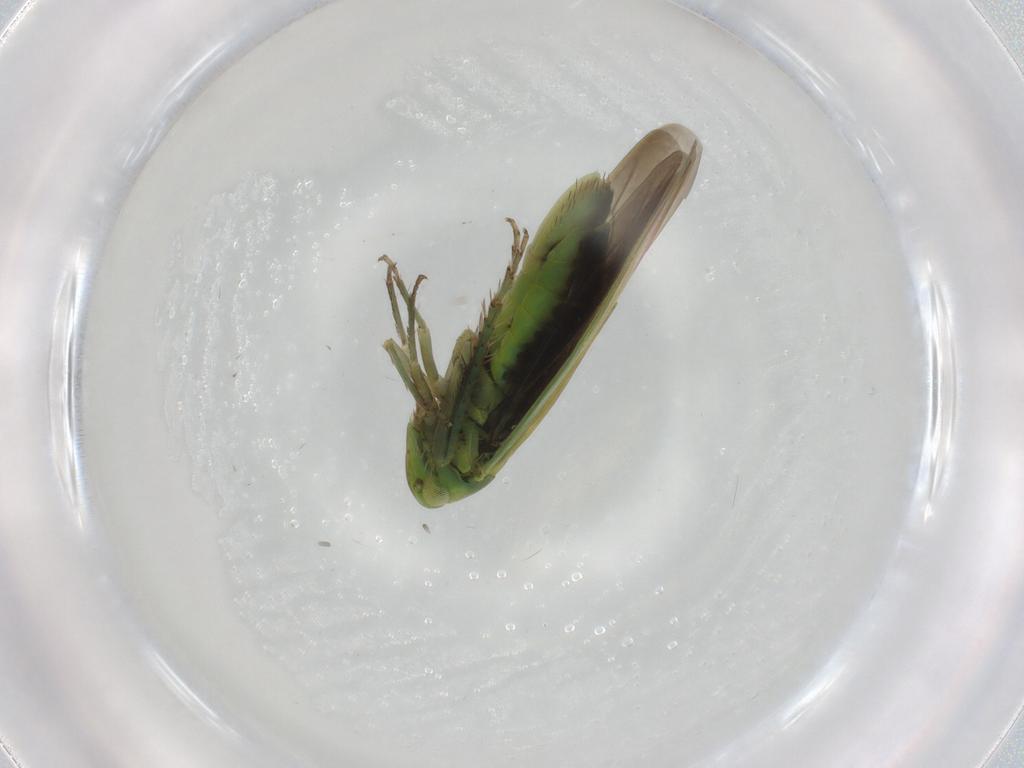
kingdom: Animalia
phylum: Arthropoda
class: Insecta
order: Hemiptera
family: Cicadellidae
